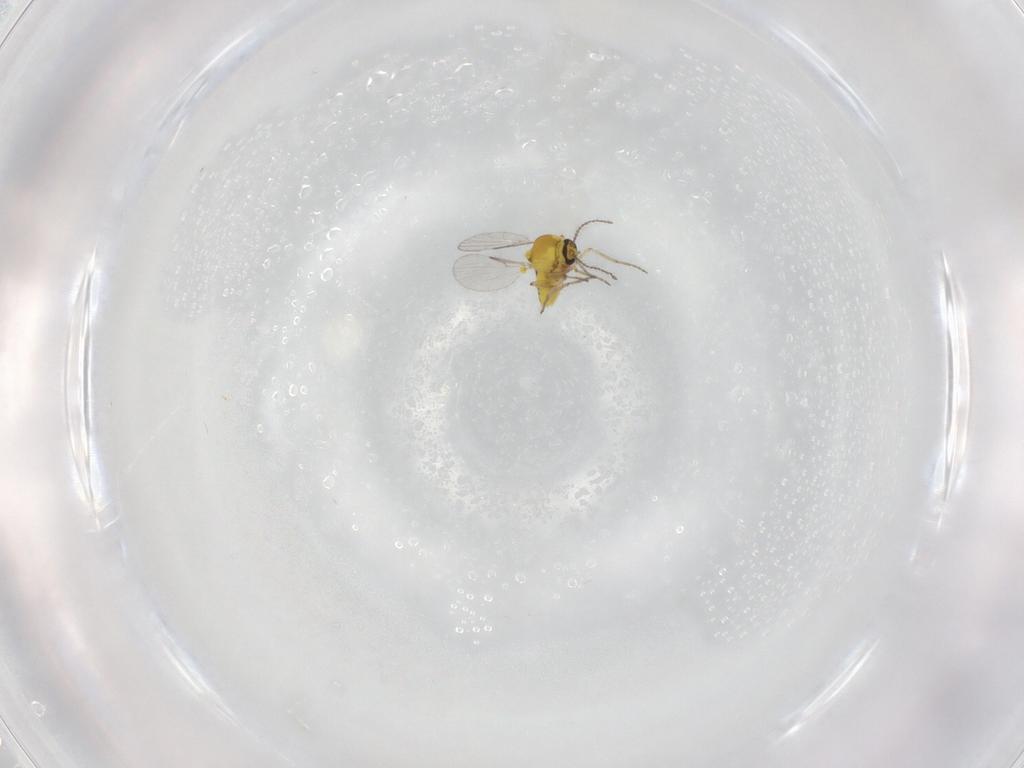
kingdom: Animalia
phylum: Arthropoda
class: Insecta
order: Diptera
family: Ceratopogonidae
